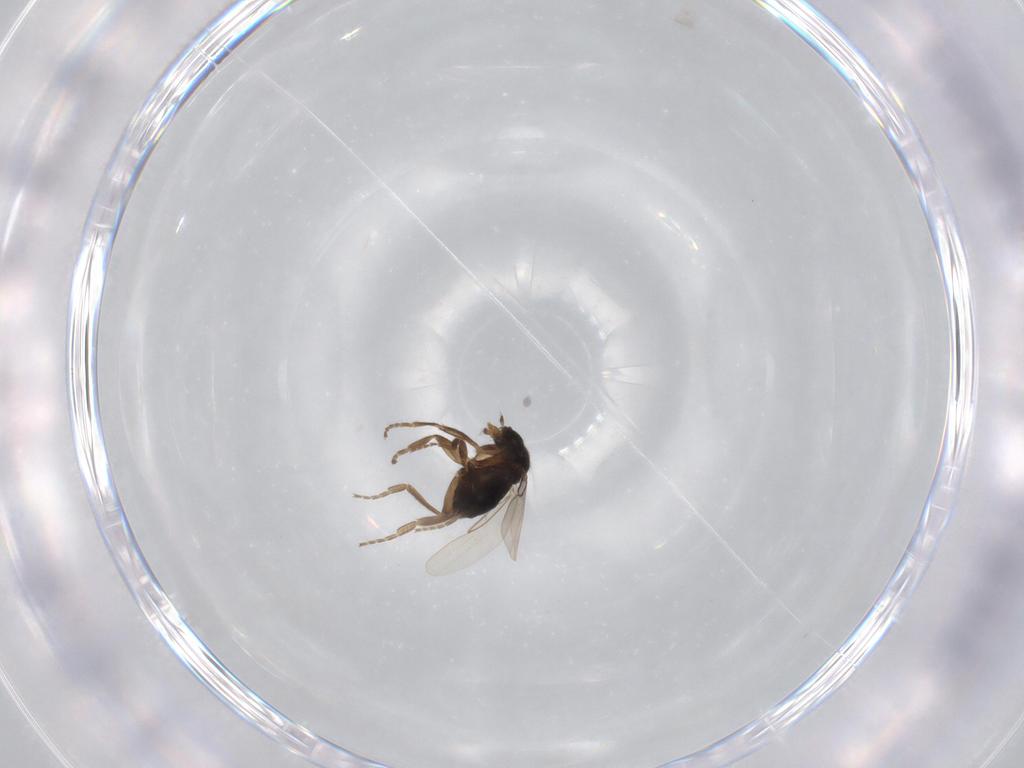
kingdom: Animalia
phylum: Arthropoda
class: Insecta
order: Diptera
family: Phoridae
